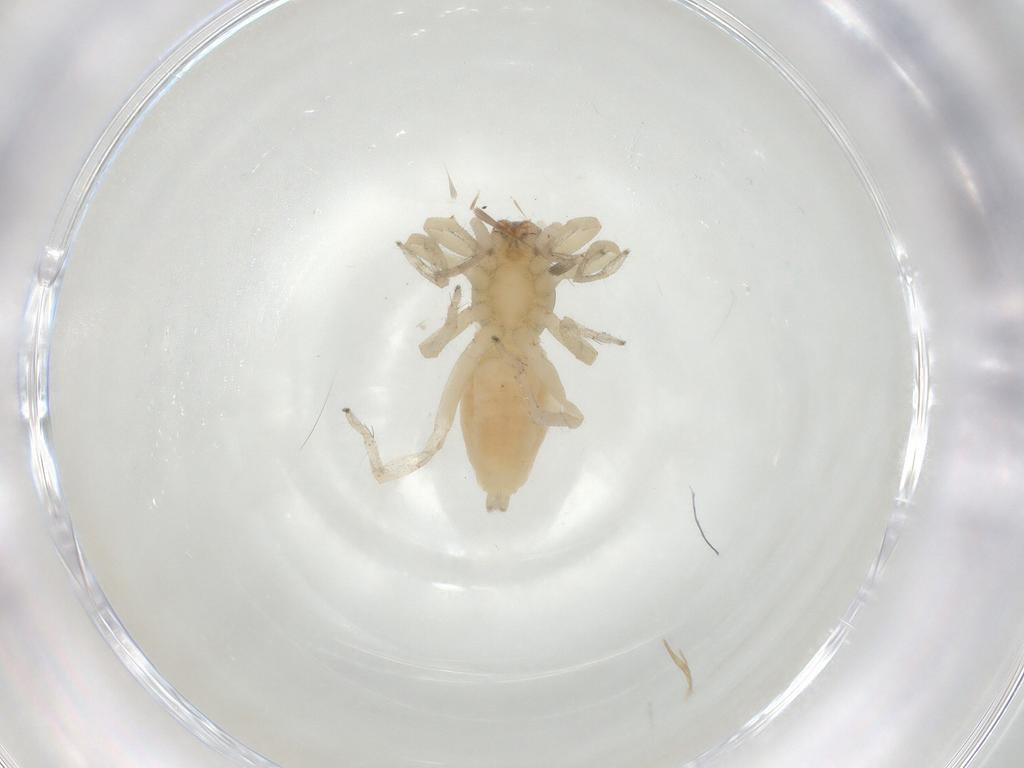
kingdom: Animalia
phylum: Arthropoda
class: Arachnida
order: Araneae
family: Clubionidae
